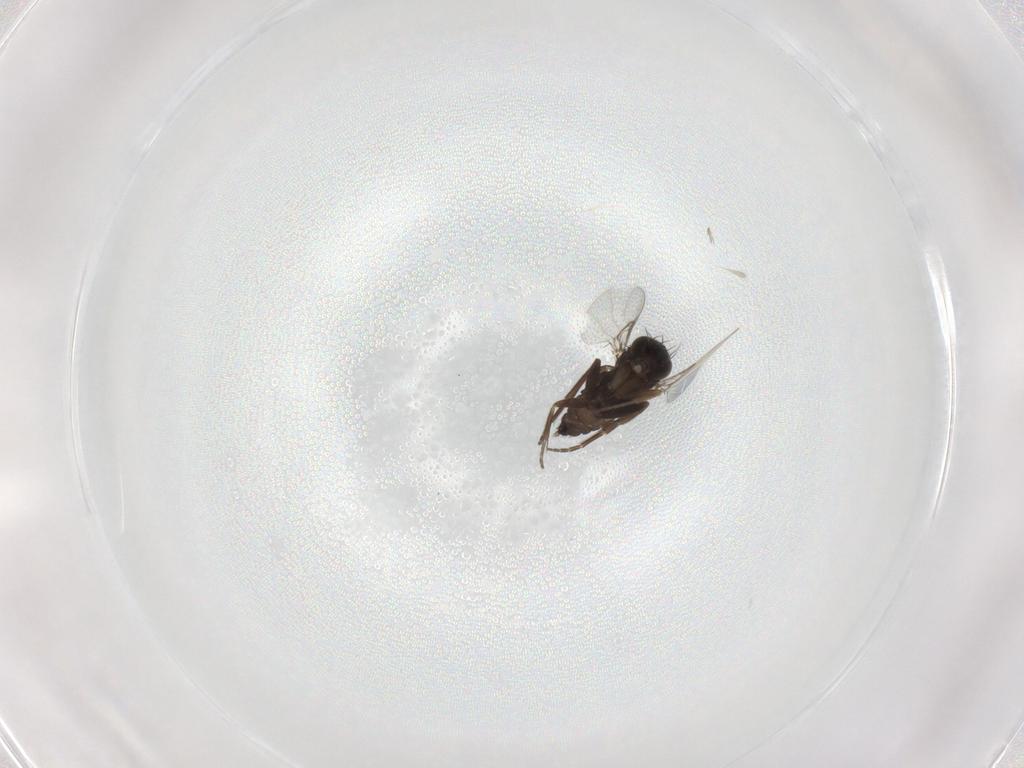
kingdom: Animalia
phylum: Arthropoda
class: Insecta
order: Diptera
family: Phoridae
